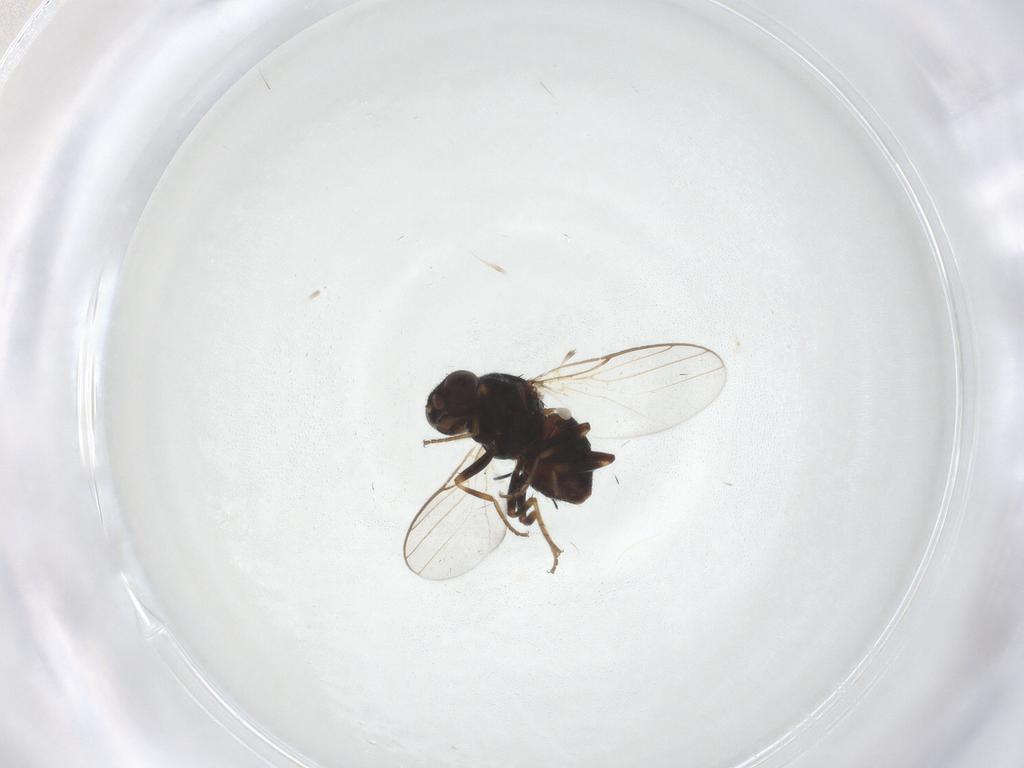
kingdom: Animalia
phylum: Arthropoda
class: Insecta
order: Diptera
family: Chloropidae
